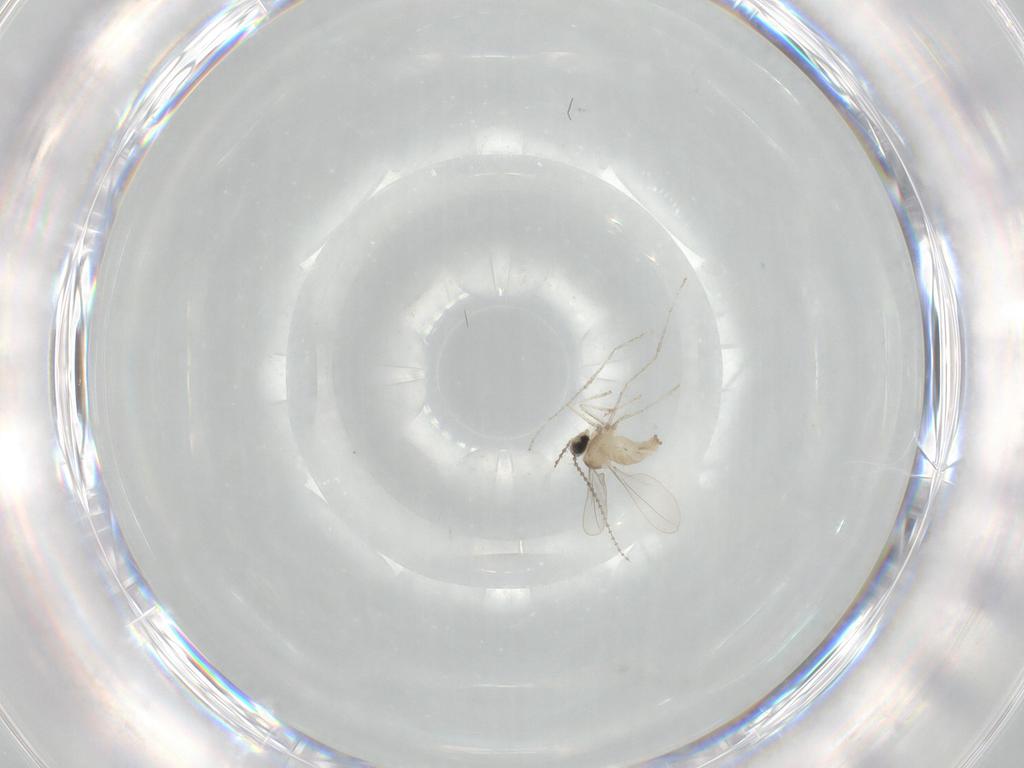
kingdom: Animalia
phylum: Arthropoda
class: Insecta
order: Diptera
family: Cecidomyiidae
